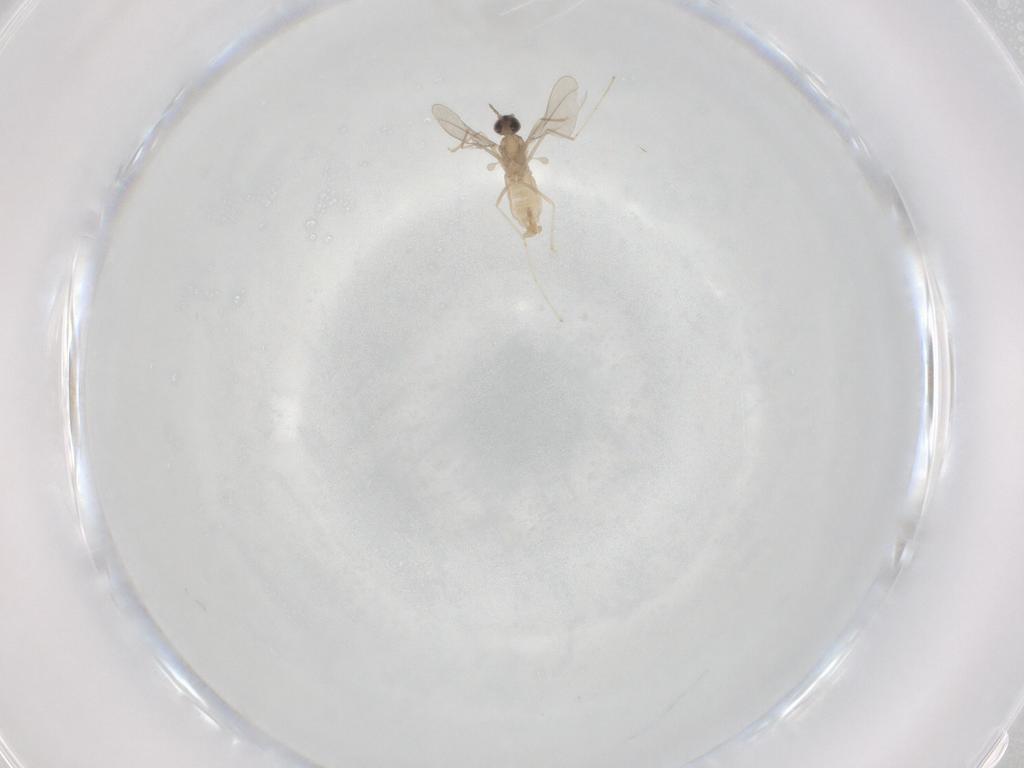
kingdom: Animalia
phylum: Arthropoda
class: Insecta
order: Diptera
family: Cecidomyiidae
